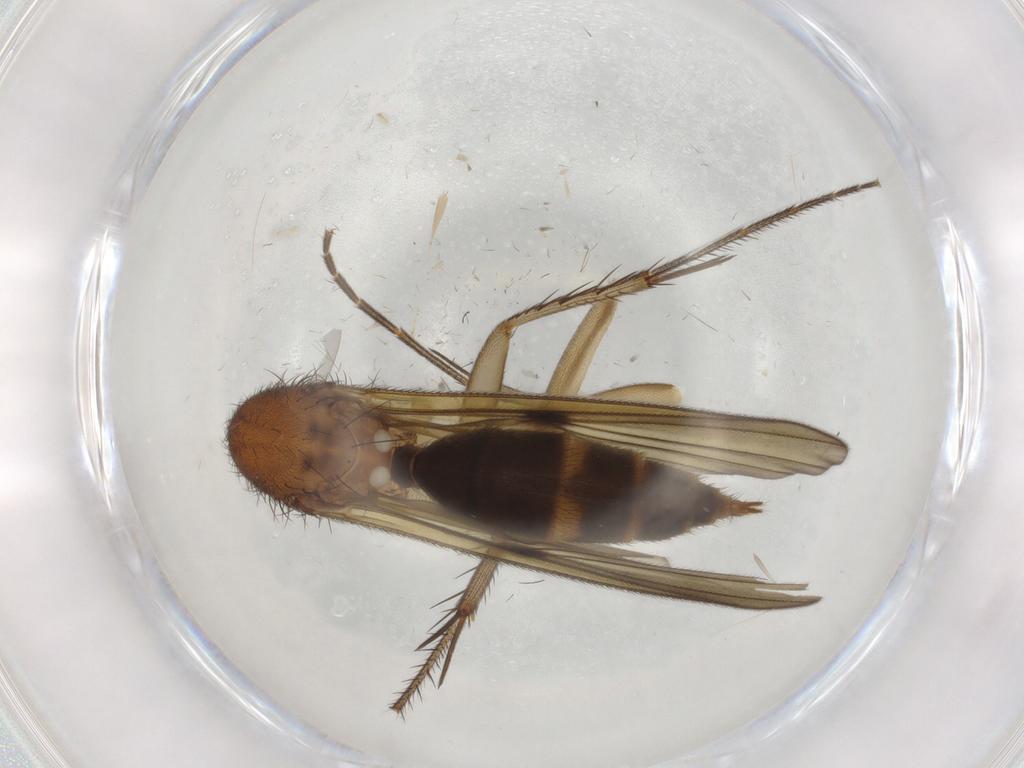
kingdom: Animalia
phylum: Arthropoda
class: Insecta
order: Diptera
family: Mycetophilidae
